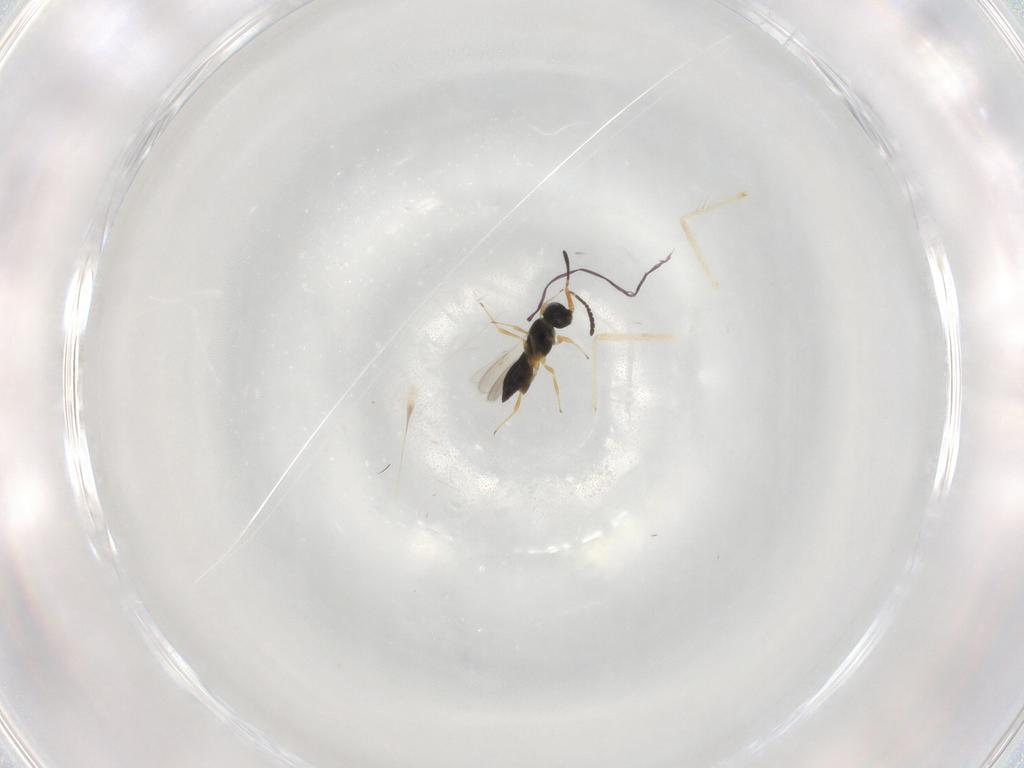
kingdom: Animalia
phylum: Arthropoda
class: Insecta
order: Hymenoptera
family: Scelionidae
